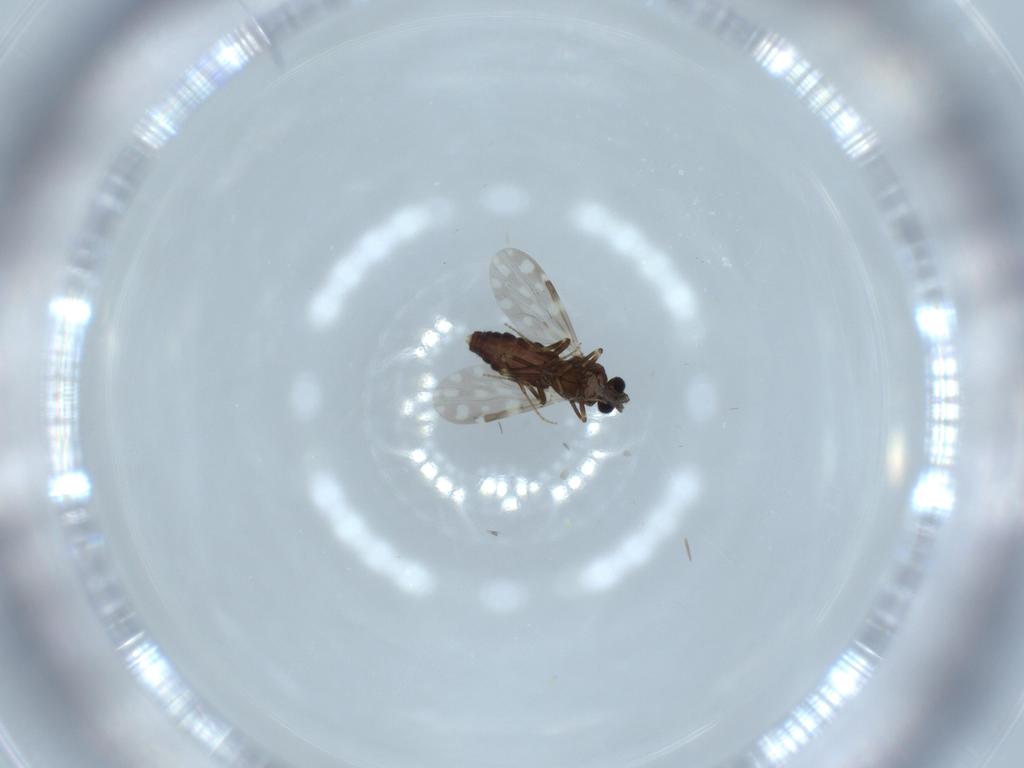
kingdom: Animalia
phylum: Arthropoda
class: Insecta
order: Diptera
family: Ceratopogonidae
